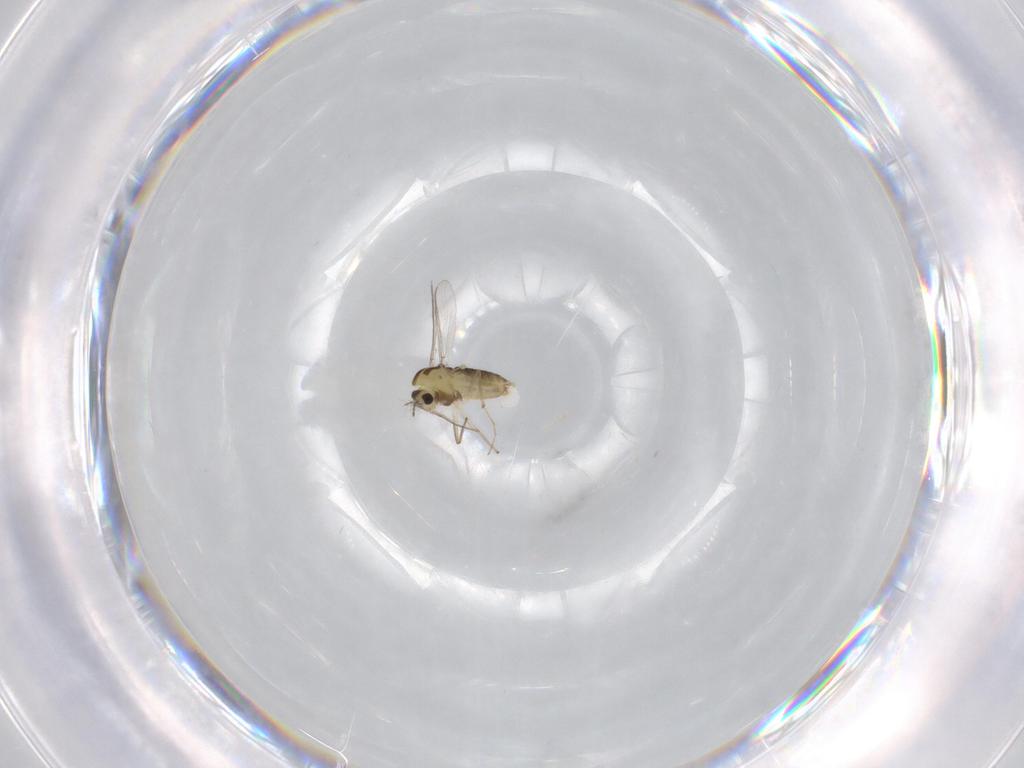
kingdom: Animalia
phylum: Arthropoda
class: Insecta
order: Diptera
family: Chironomidae
